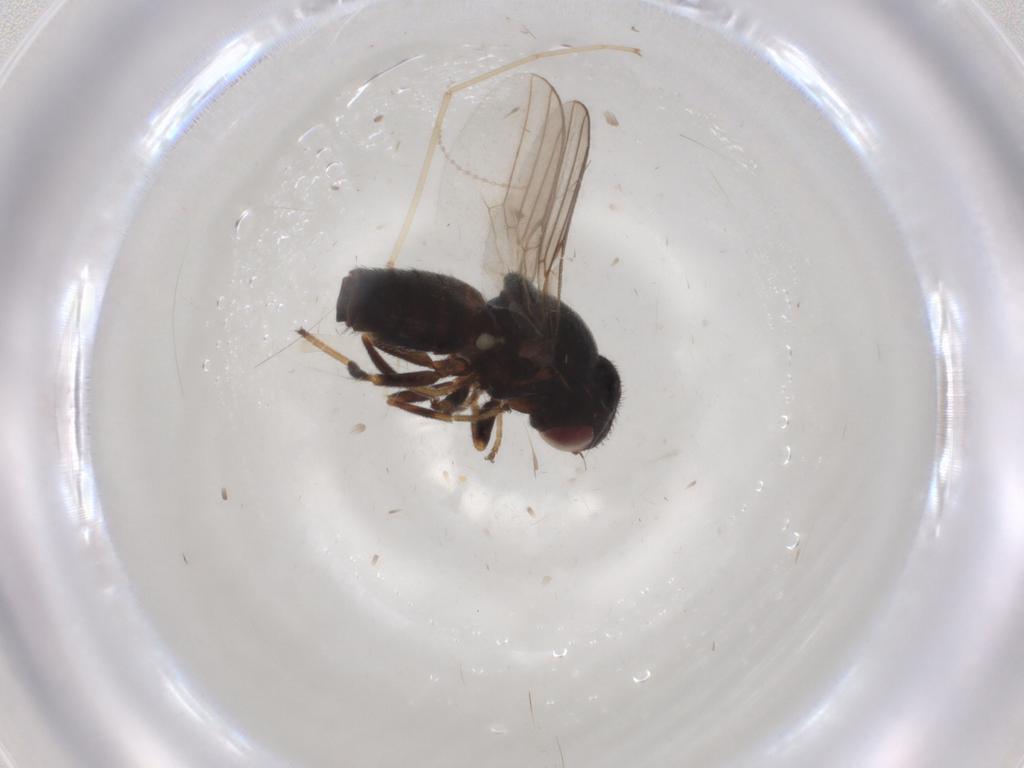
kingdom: Animalia
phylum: Arthropoda
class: Insecta
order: Diptera
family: Chloropidae
